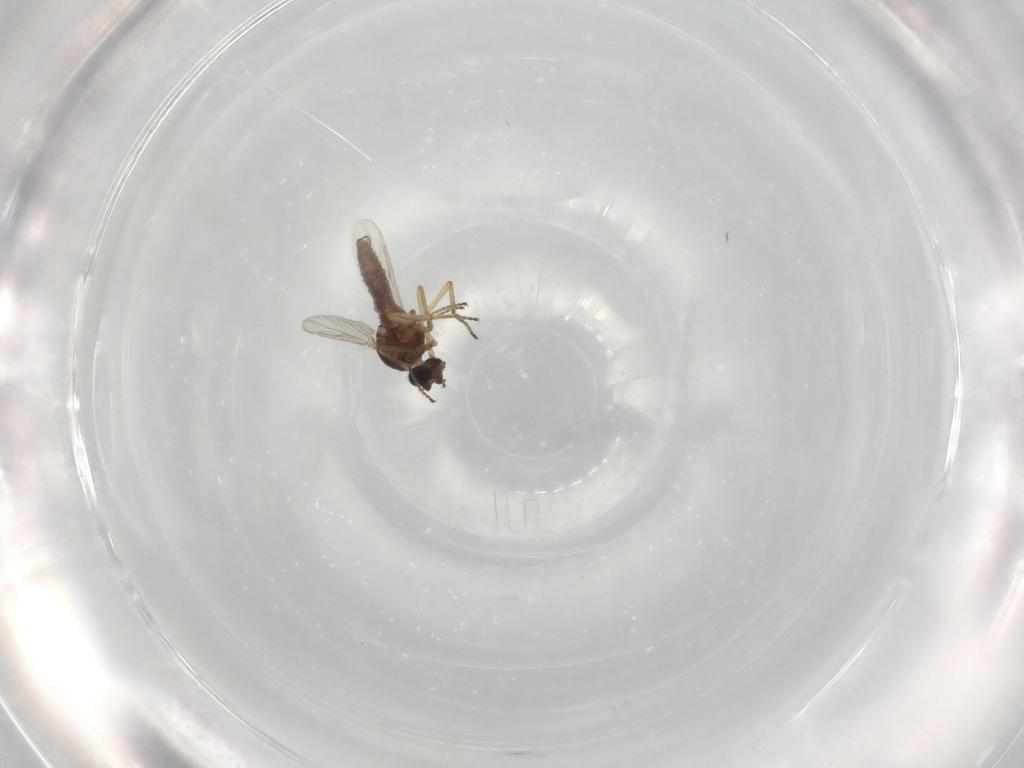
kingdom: Animalia
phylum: Arthropoda
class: Insecta
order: Diptera
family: Ceratopogonidae
